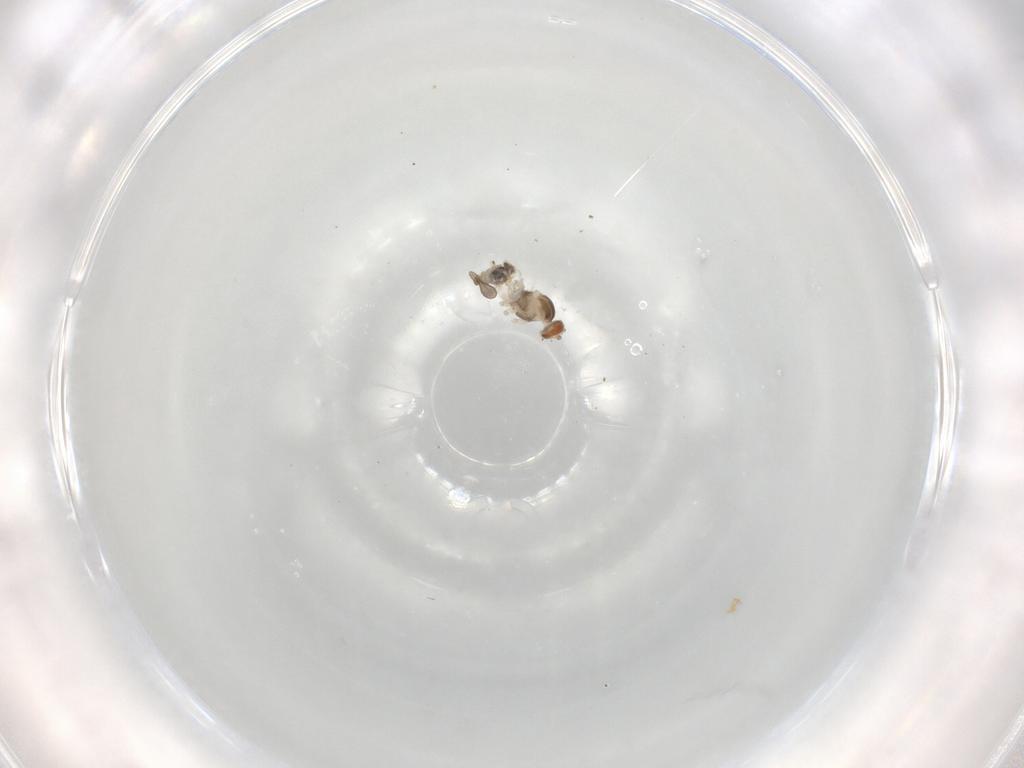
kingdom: Animalia
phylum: Arthropoda
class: Insecta
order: Diptera
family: Cecidomyiidae
